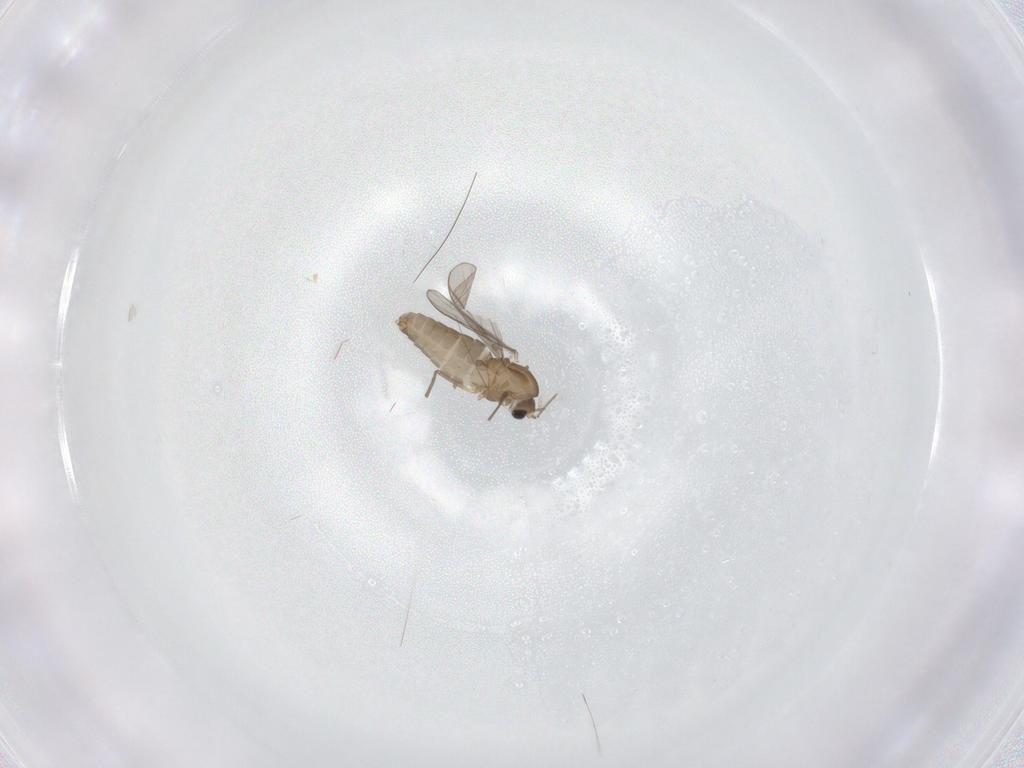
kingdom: Animalia
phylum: Arthropoda
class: Insecta
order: Diptera
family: Chironomidae
